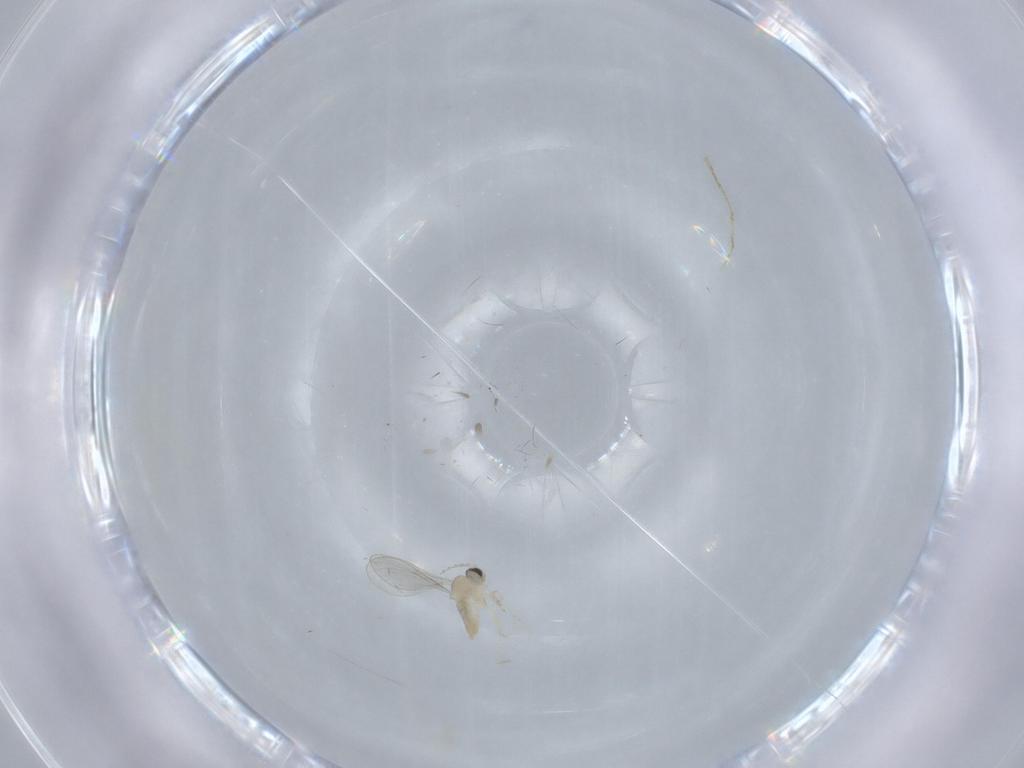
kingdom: Animalia
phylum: Arthropoda
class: Insecta
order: Diptera
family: Cecidomyiidae
